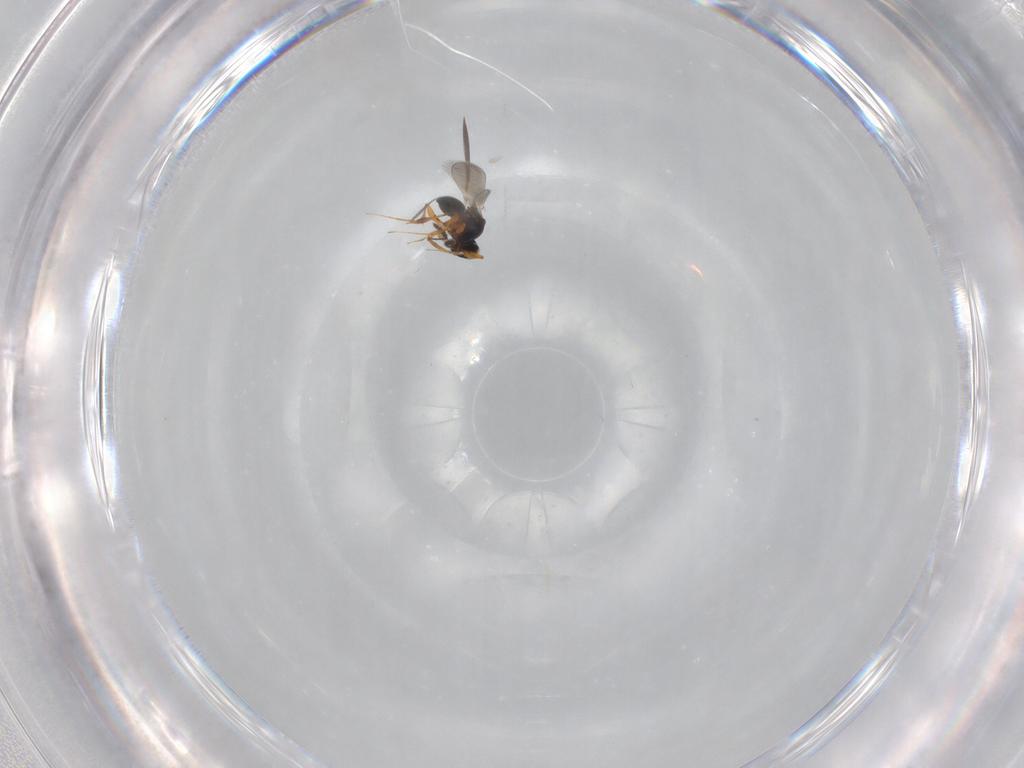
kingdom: Animalia
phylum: Arthropoda
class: Insecta
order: Hymenoptera
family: Platygastridae
